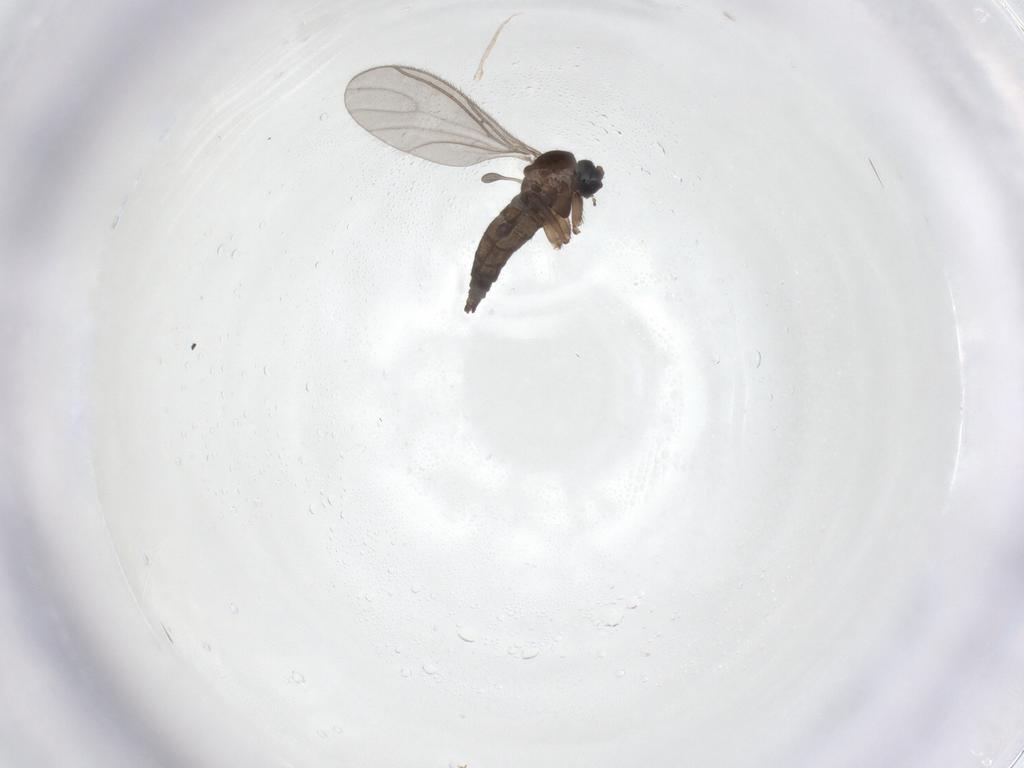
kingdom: Animalia
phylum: Arthropoda
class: Insecta
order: Diptera
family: Sciaridae
